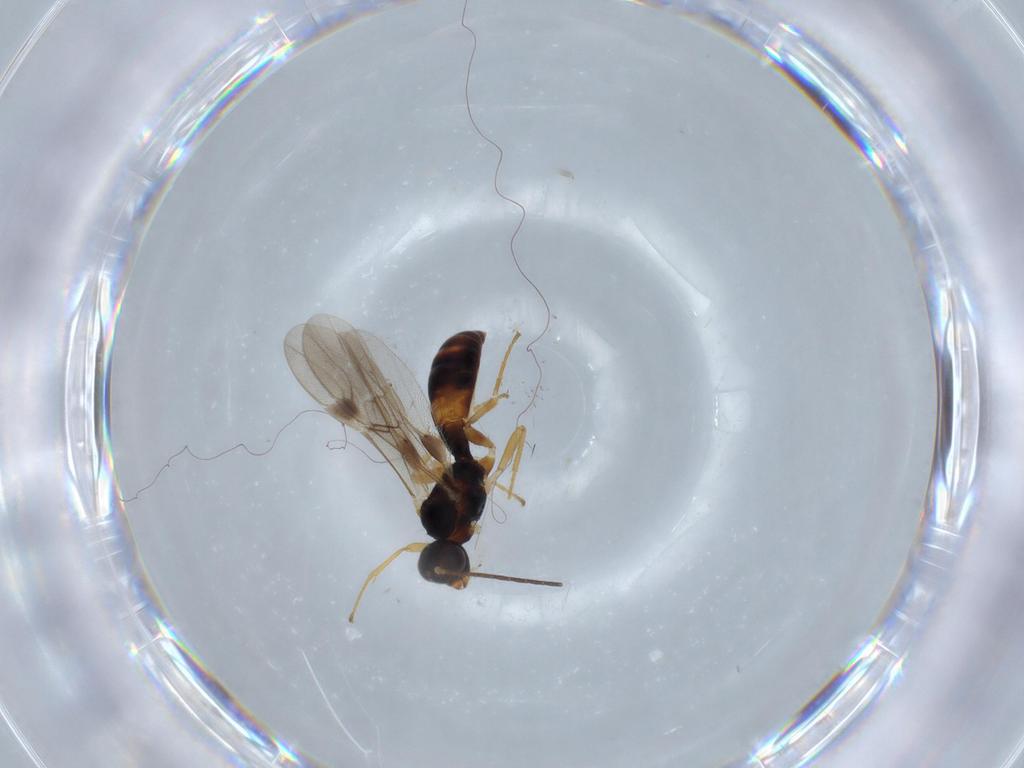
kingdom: Animalia
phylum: Arthropoda
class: Insecta
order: Hymenoptera
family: Braconidae
